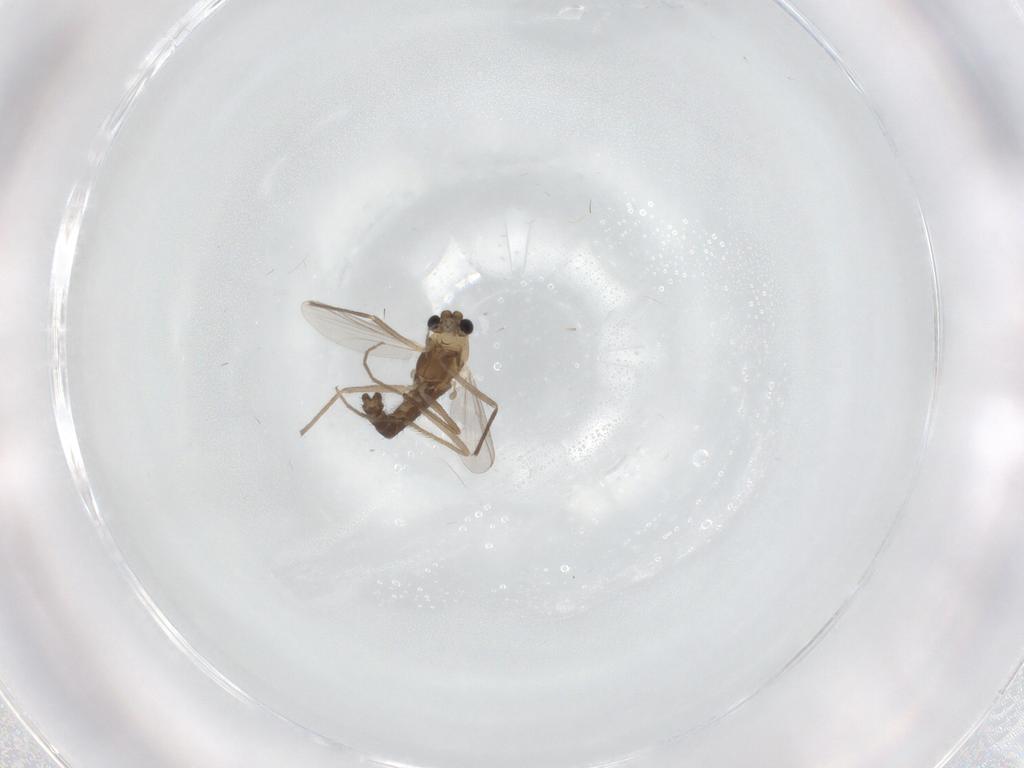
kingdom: Animalia
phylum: Arthropoda
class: Insecta
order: Diptera
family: Chironomidae
